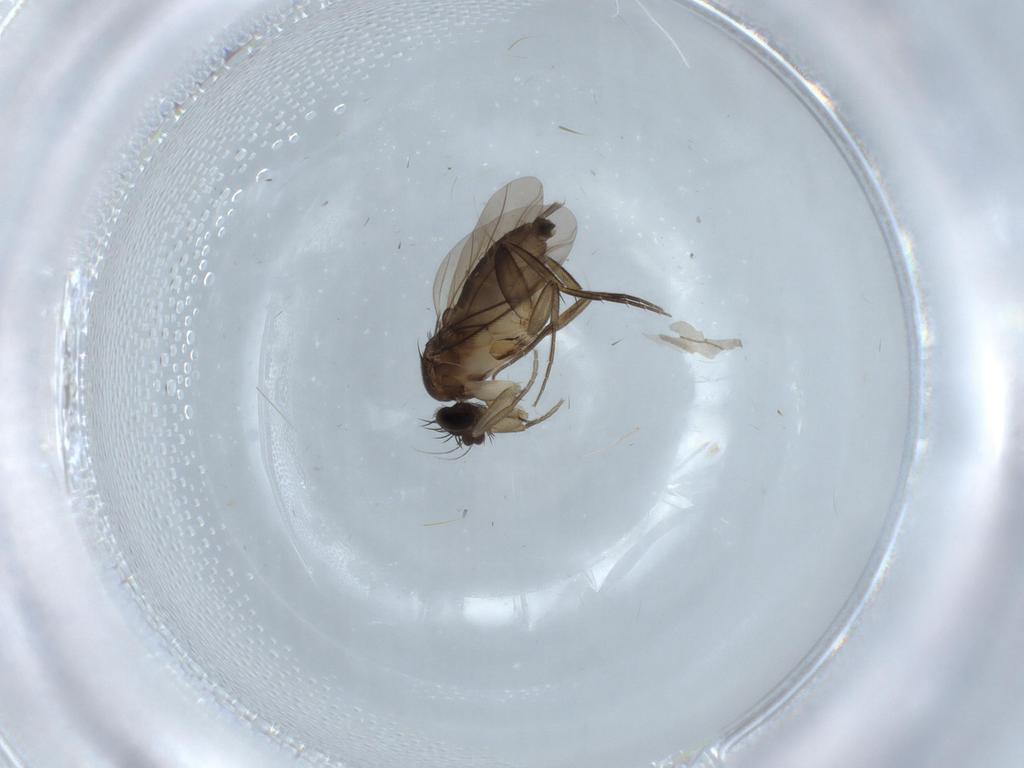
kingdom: Animalia
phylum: Arthropoda
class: Insecta
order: Diptera
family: Phoridae
